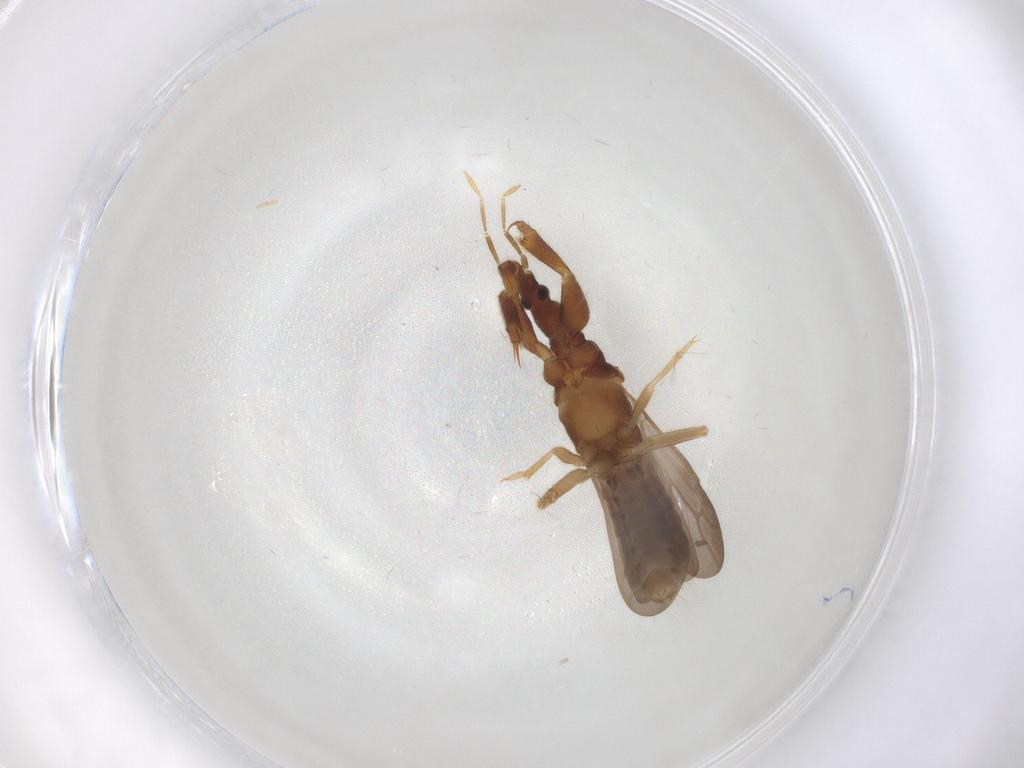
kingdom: Animalia
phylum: Arthropoda
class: Insecta
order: Hemiptera
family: Enicocephalidae
